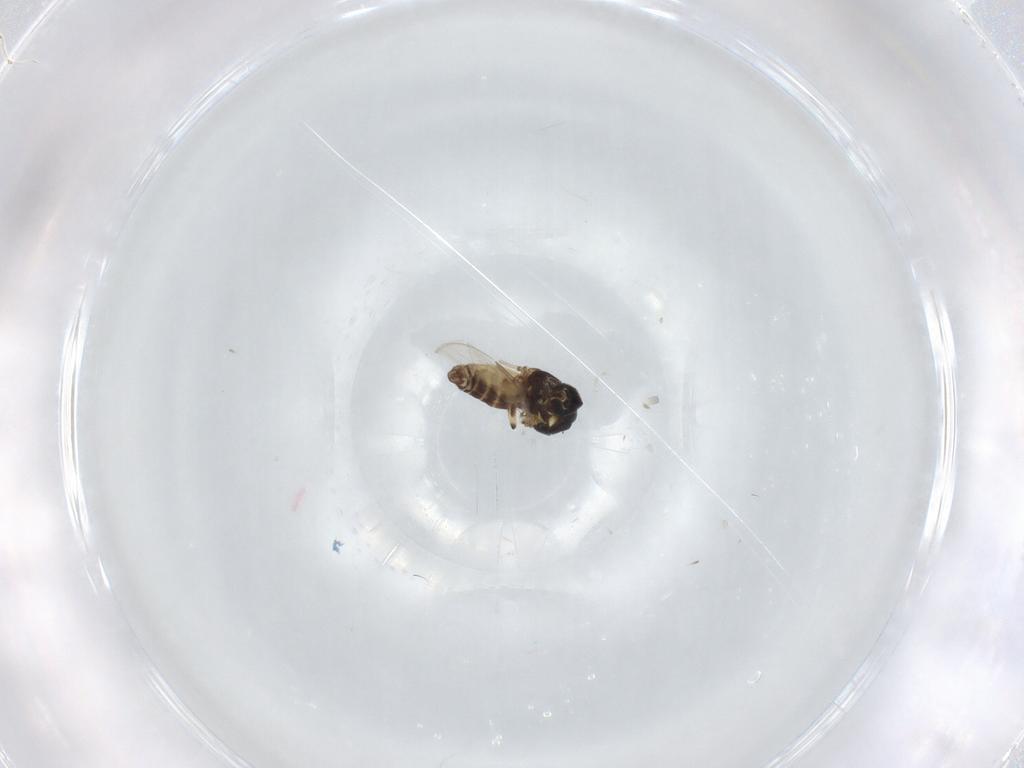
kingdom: Animalia
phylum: Arthropoda
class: Insecta
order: Diptera
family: Ceratopogonidae
